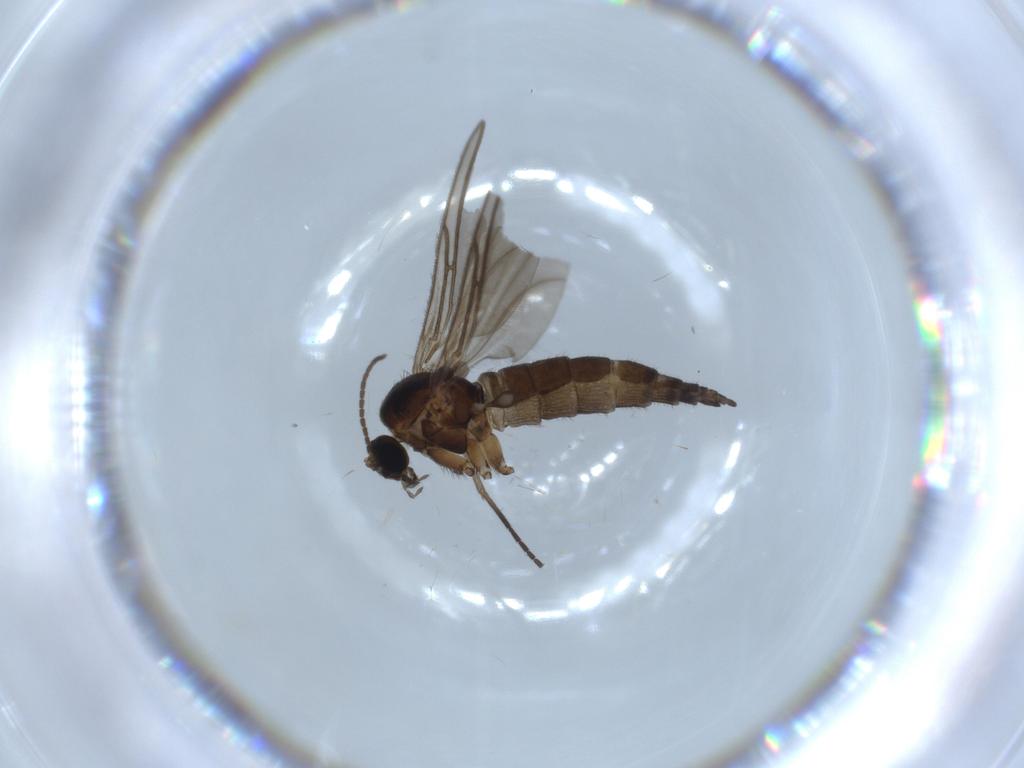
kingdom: Animalia
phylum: Arthropoda
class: Insecta
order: Diptera
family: Sciaridae
